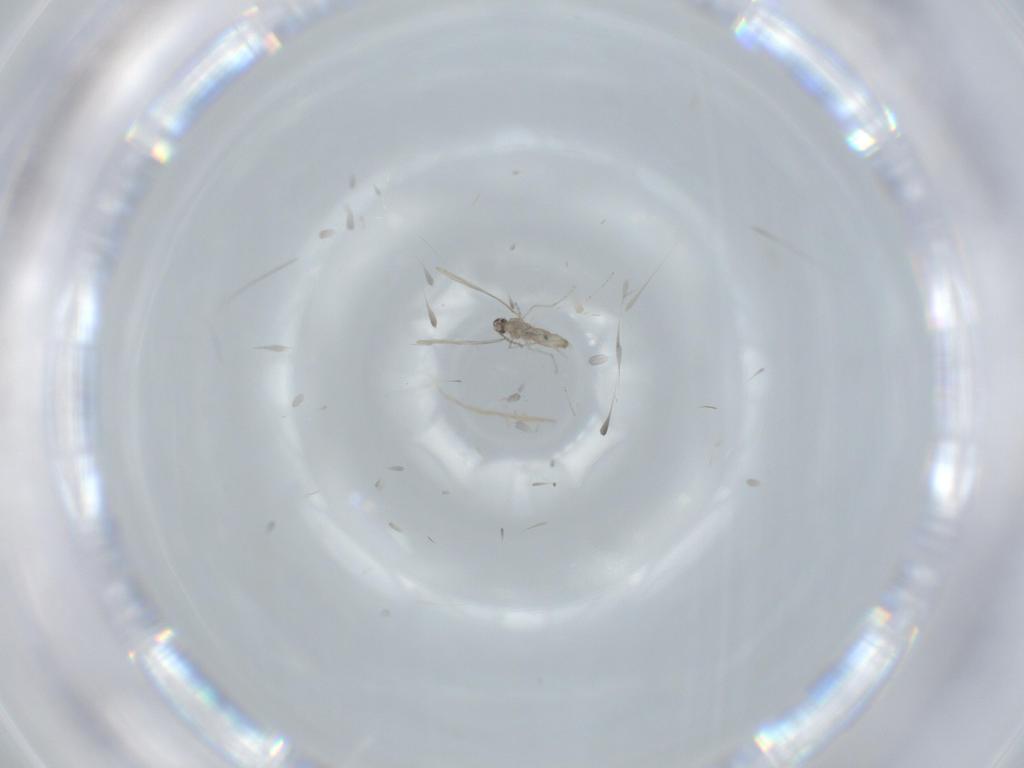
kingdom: Animalia
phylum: Arthropoda
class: Insecta
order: Diptera
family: Cecidomyiidae
